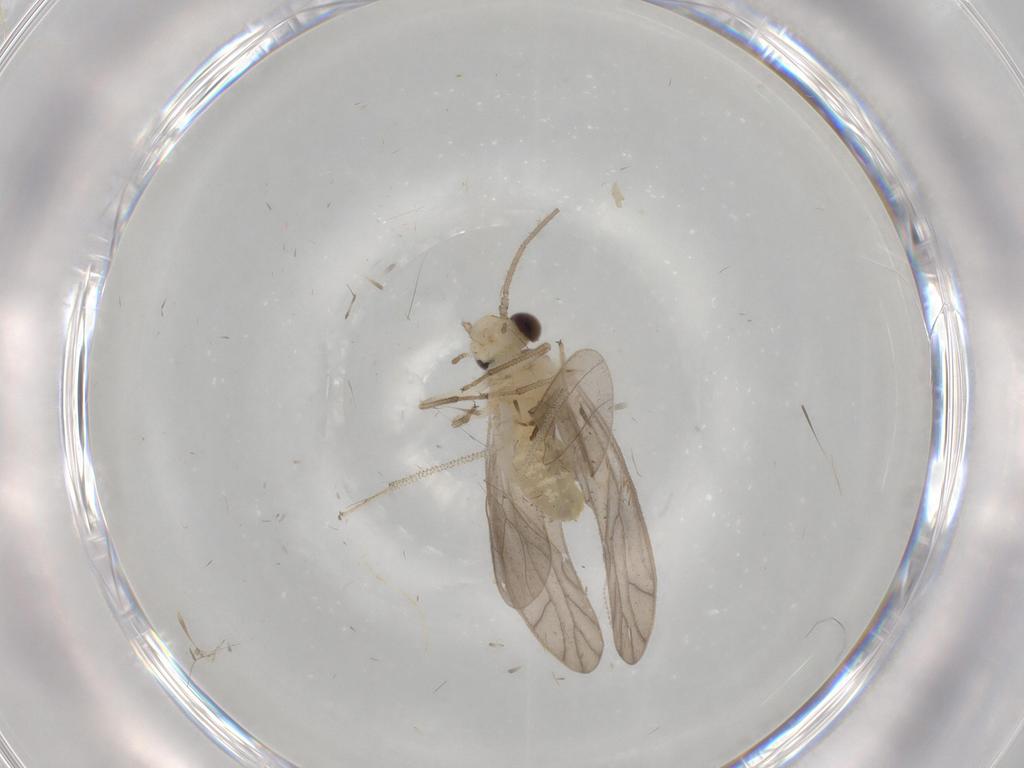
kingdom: Animalia
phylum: Arthropoda
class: Insecta
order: Psocodea
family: Caeciliusidae
